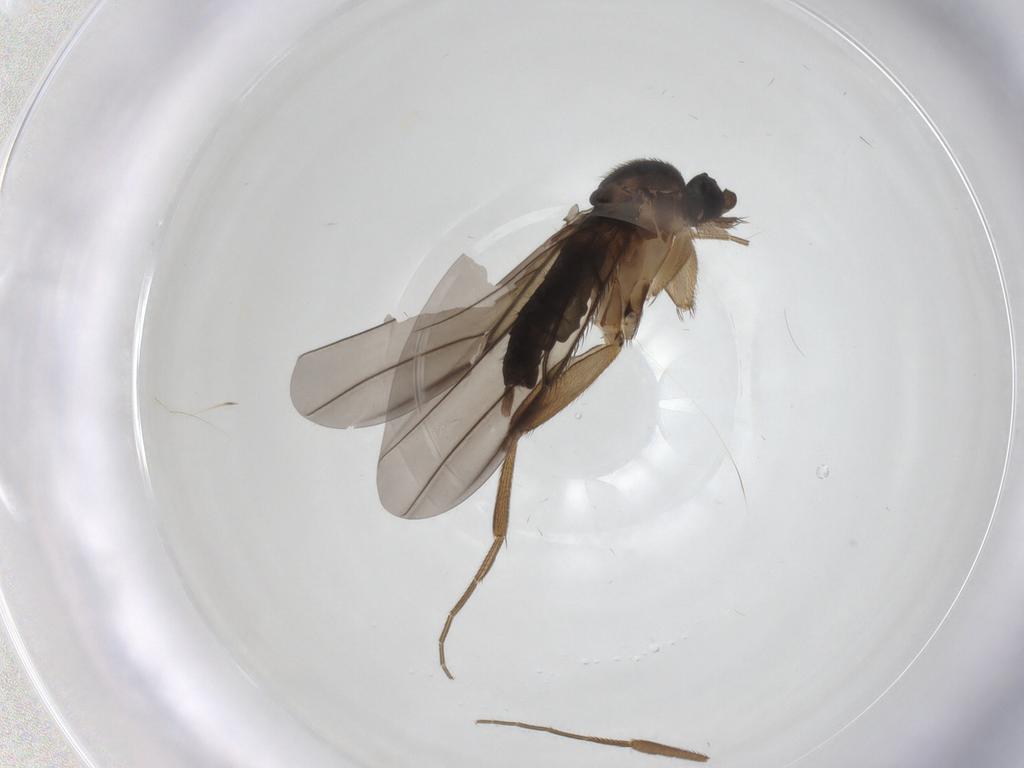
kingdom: Animalia
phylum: Arthropoda
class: Insecta
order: Diptera
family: Phoridae
